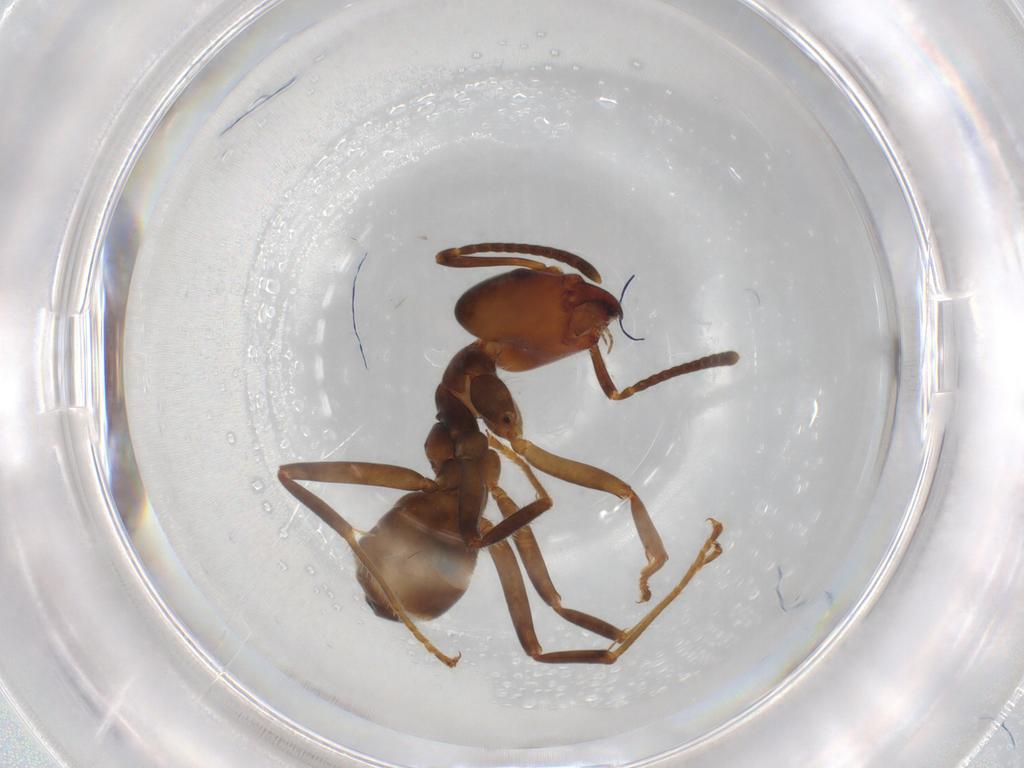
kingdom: Animalia
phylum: Arthropoda
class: Insecta
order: Hymenoptera
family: Formicidae
